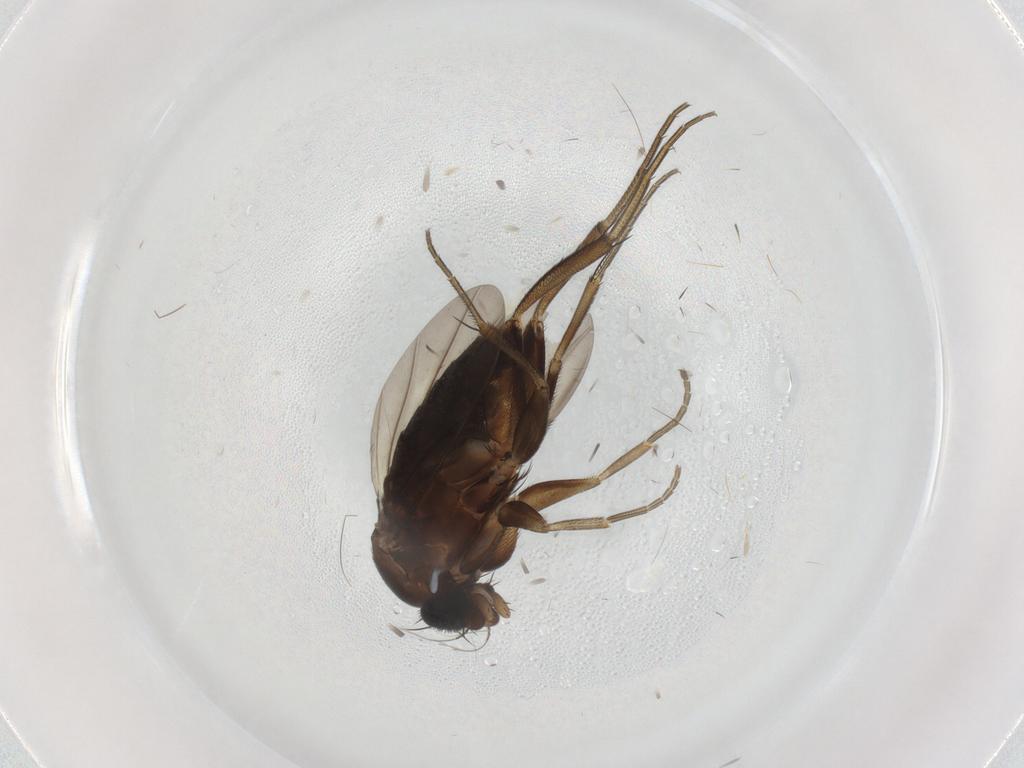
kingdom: Animalia
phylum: Arthropoda
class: Insecta
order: Diptera
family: Phoridae
